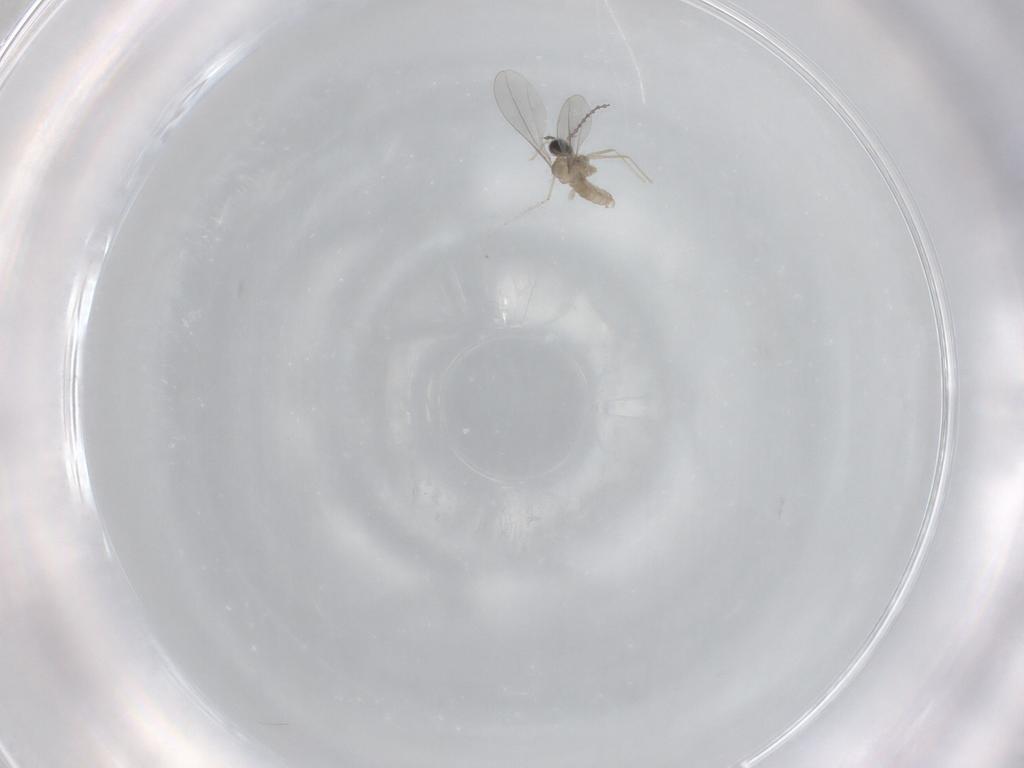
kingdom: Animalia
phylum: Arthropoda
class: Insecta
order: Diptera
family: Cecidomyiidae
